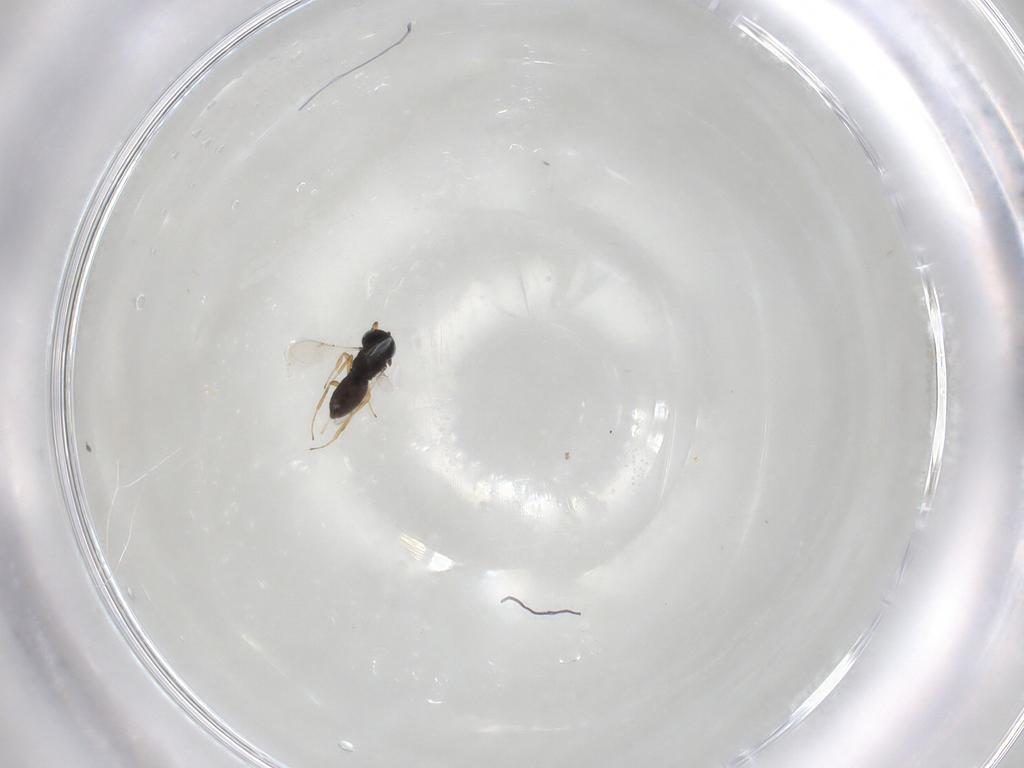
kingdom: Animalia
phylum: Arthropoda
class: Insecta
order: Hymenoptera
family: Scelionidae
